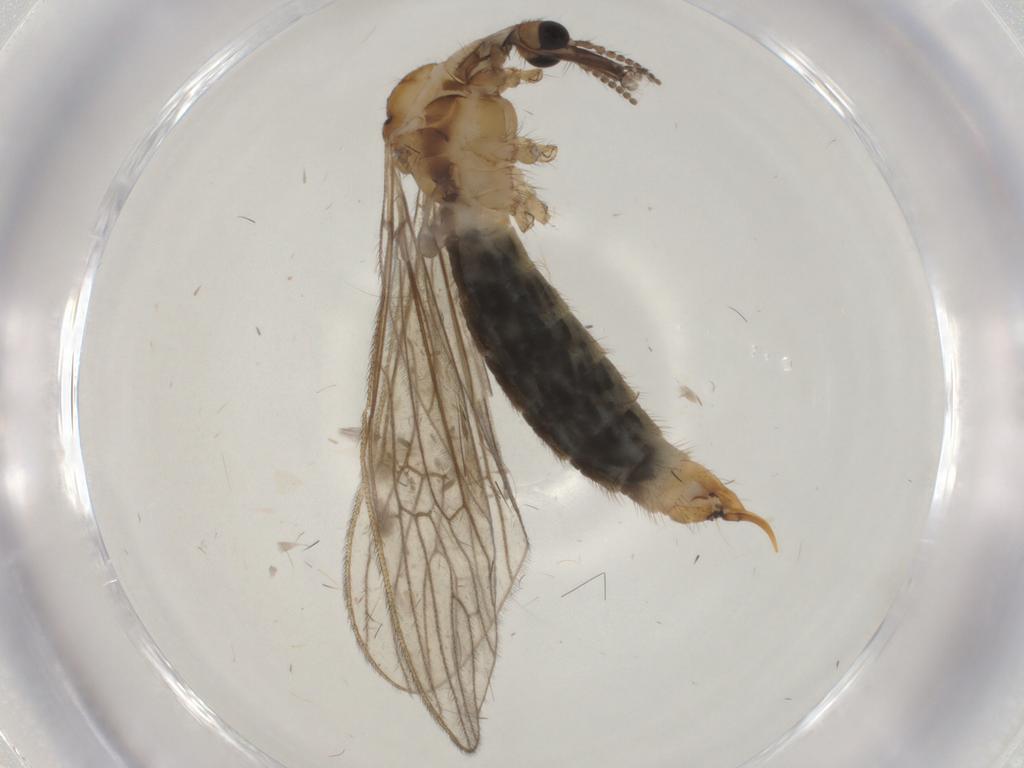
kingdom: Animalia
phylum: Arthropoda
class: Insecta
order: Diptera
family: Limoniidae
